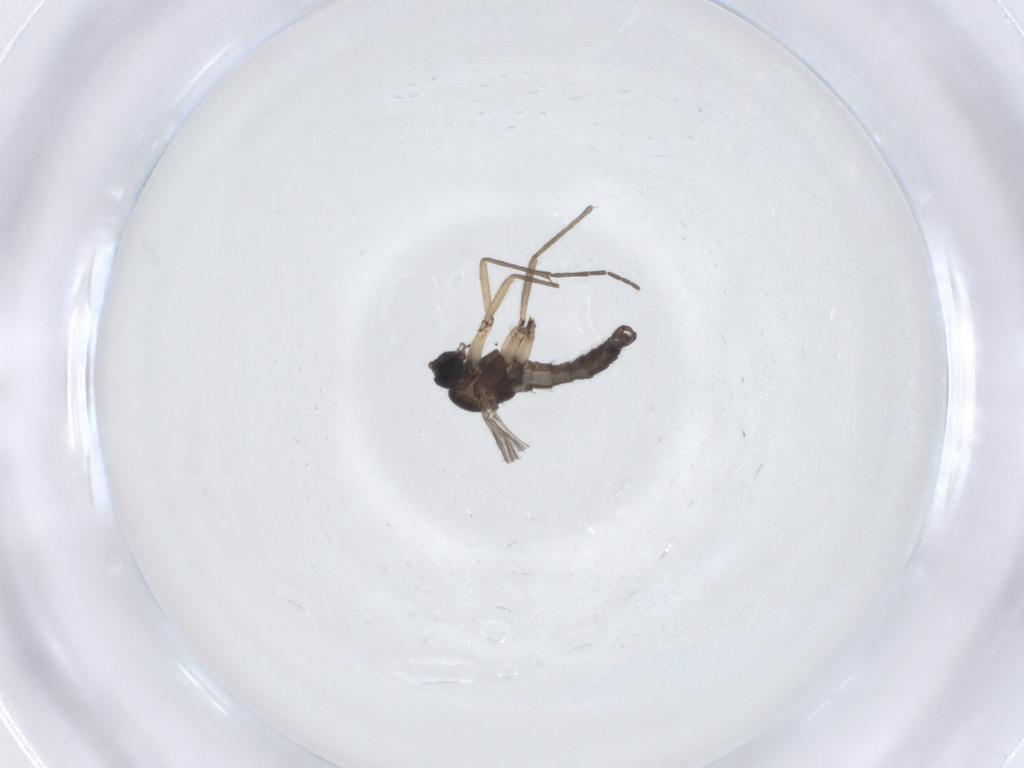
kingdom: Animalia
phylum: Arthropoda
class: Insecta
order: Diptera
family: Sciaridae
